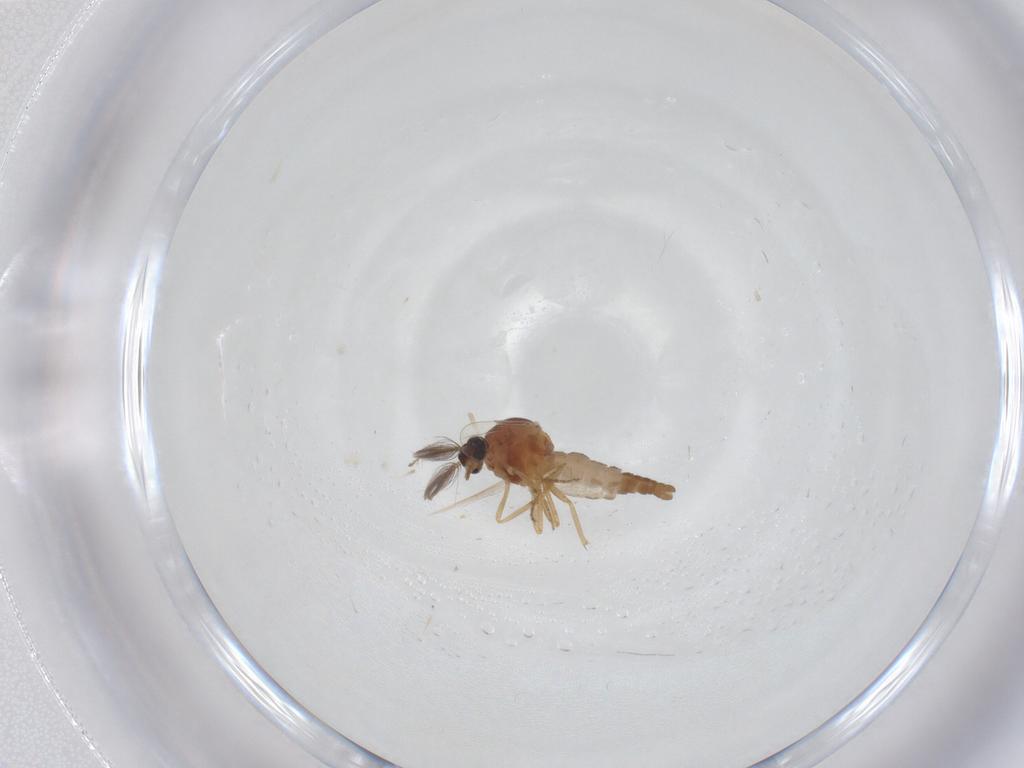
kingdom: Animalia
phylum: Arthropoda
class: Insecta
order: Diptera
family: Ceratopogonidae
